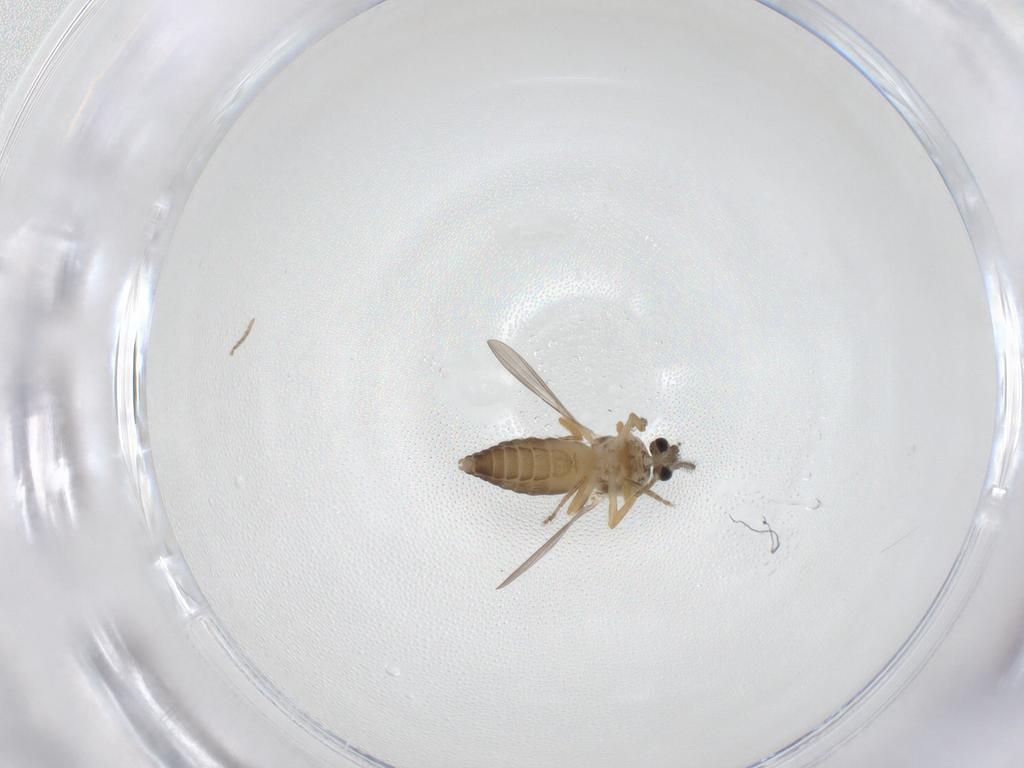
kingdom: Animalia
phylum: Arthropoda
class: Insecta
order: Diptera
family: Ceratopogonidae
